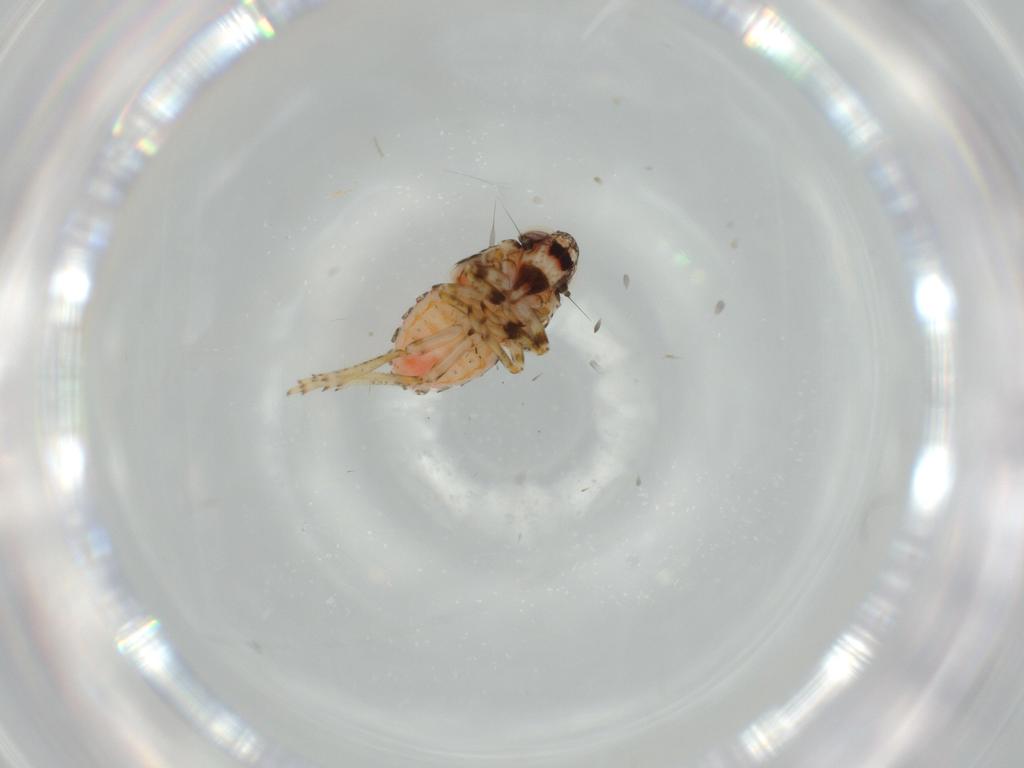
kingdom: Animalia
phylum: Arthropoda
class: Insecta
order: Hemiptera
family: Issidae
